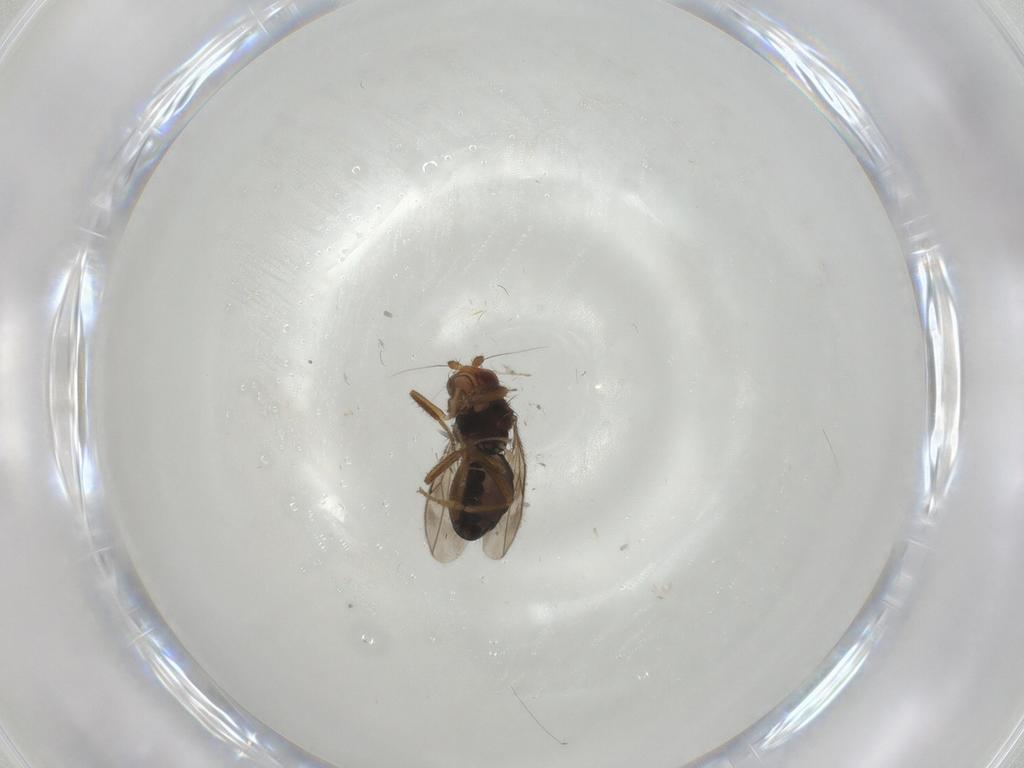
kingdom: Animalia
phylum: Arthropoda
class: Insecta
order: Diptera
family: Sphaeroceridae
